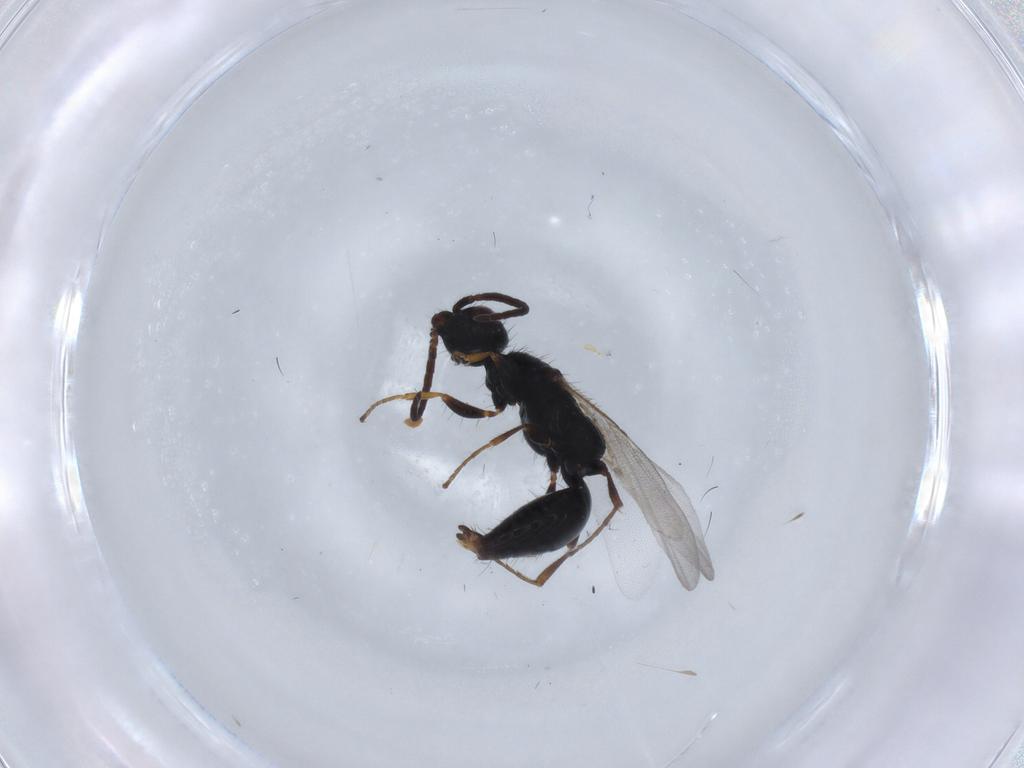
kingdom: Animalia
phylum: Arthropoda
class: Insecta
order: Hymenoptera
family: Bethylidae
